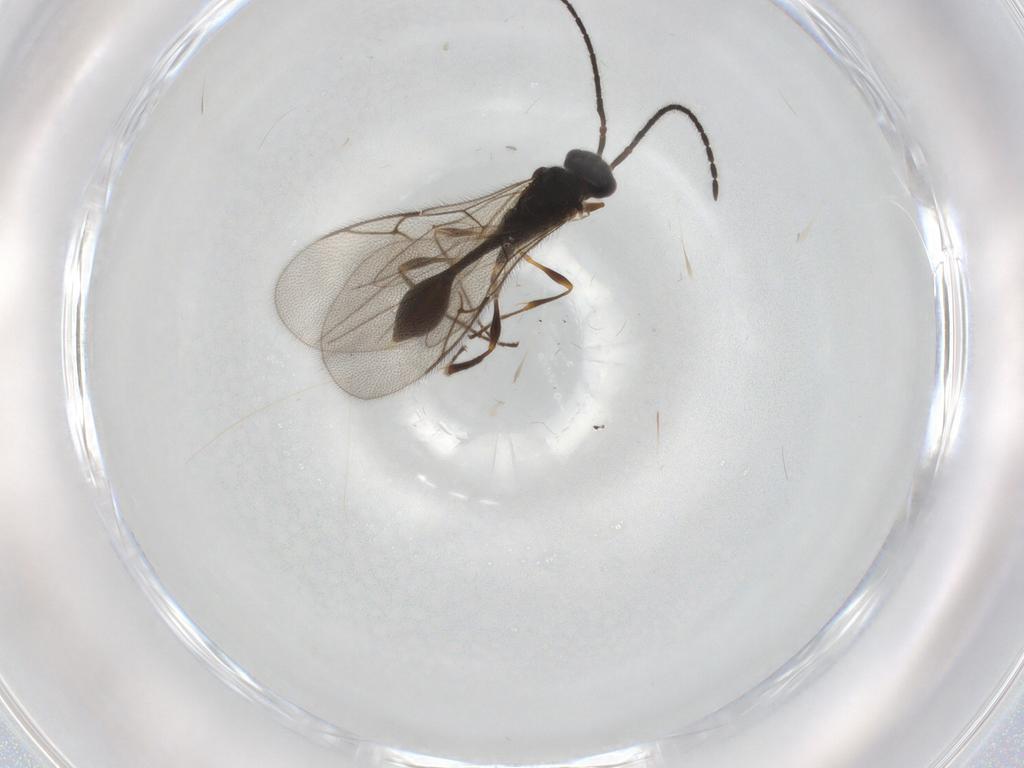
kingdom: Animalia
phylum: Arthropoda
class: Insecta
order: Hymenoptera
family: Diapriidae
